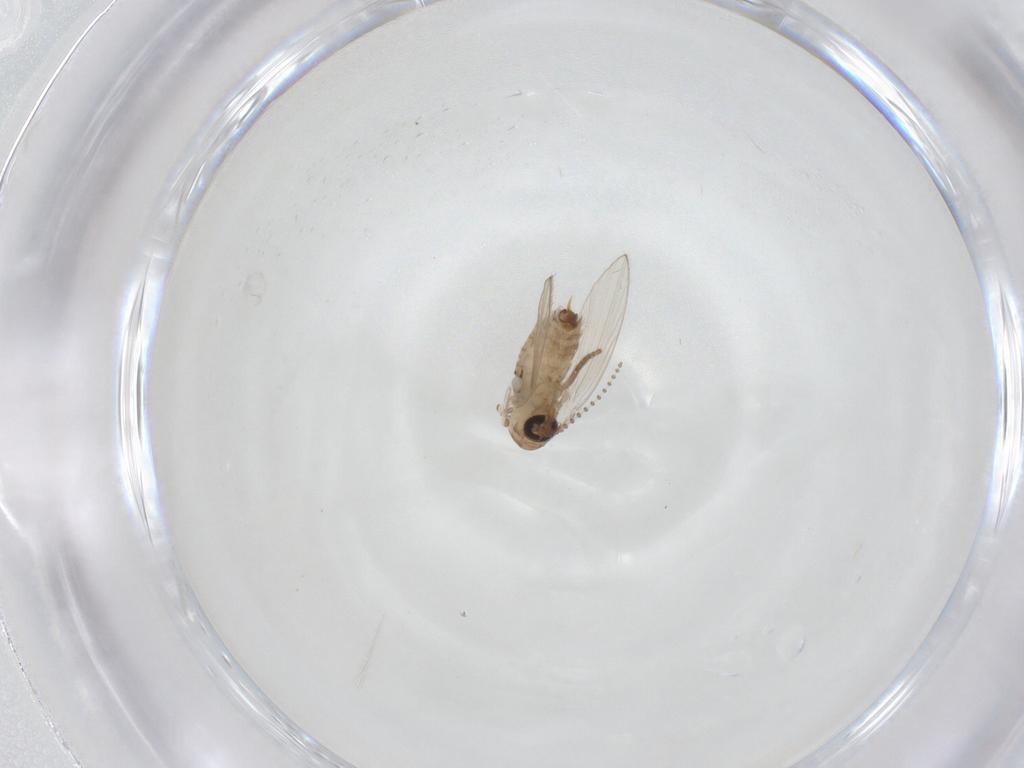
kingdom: Animalia
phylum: Arthropoda
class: Insecta
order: Diptera
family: Psychodidae
